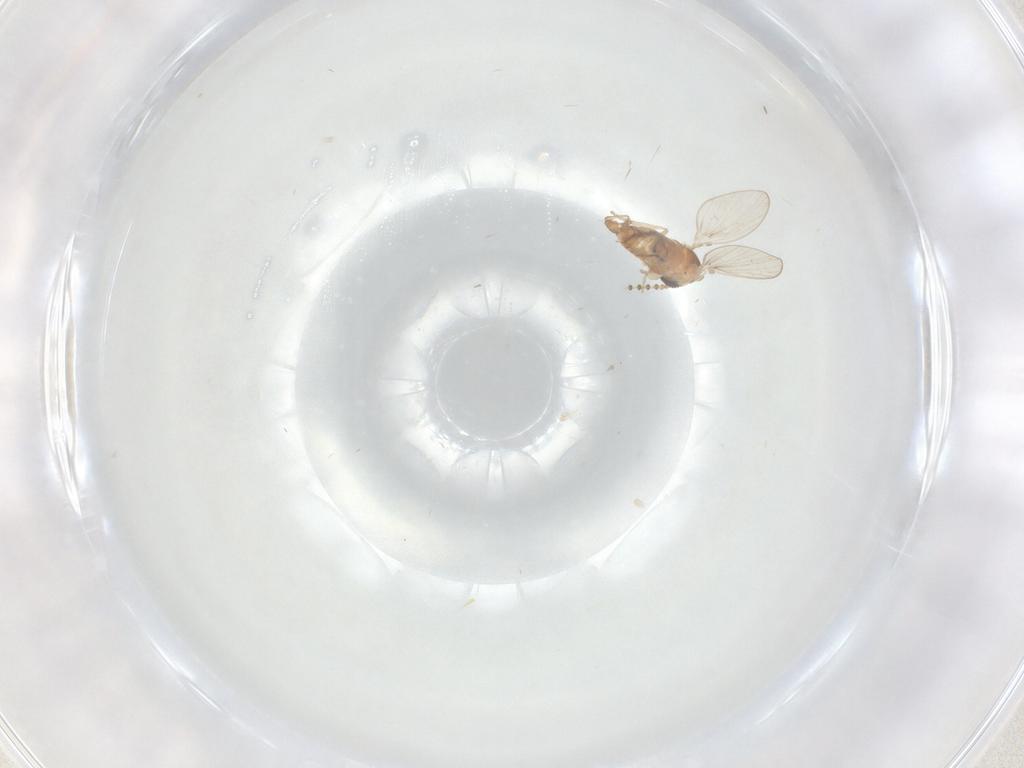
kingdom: Animalia
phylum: Arthropoda
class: Insecta
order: Diptera
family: Psychodidae
